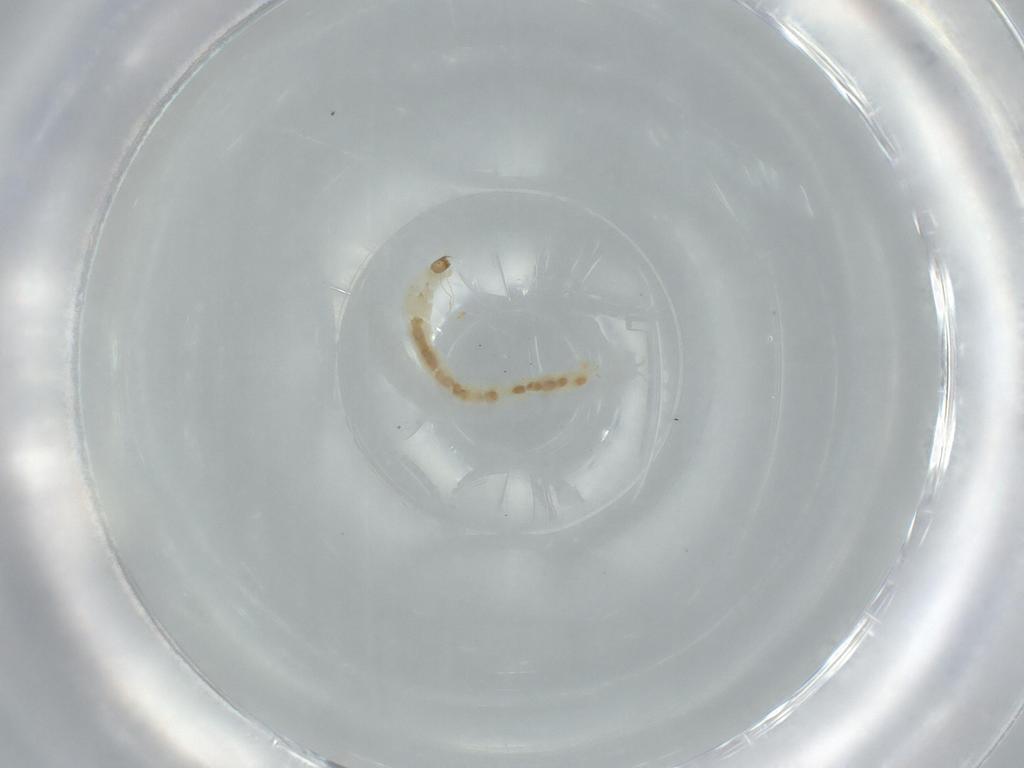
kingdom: Animalia
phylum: Arthropoda
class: Insecta
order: Diptera
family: Chironomidae
